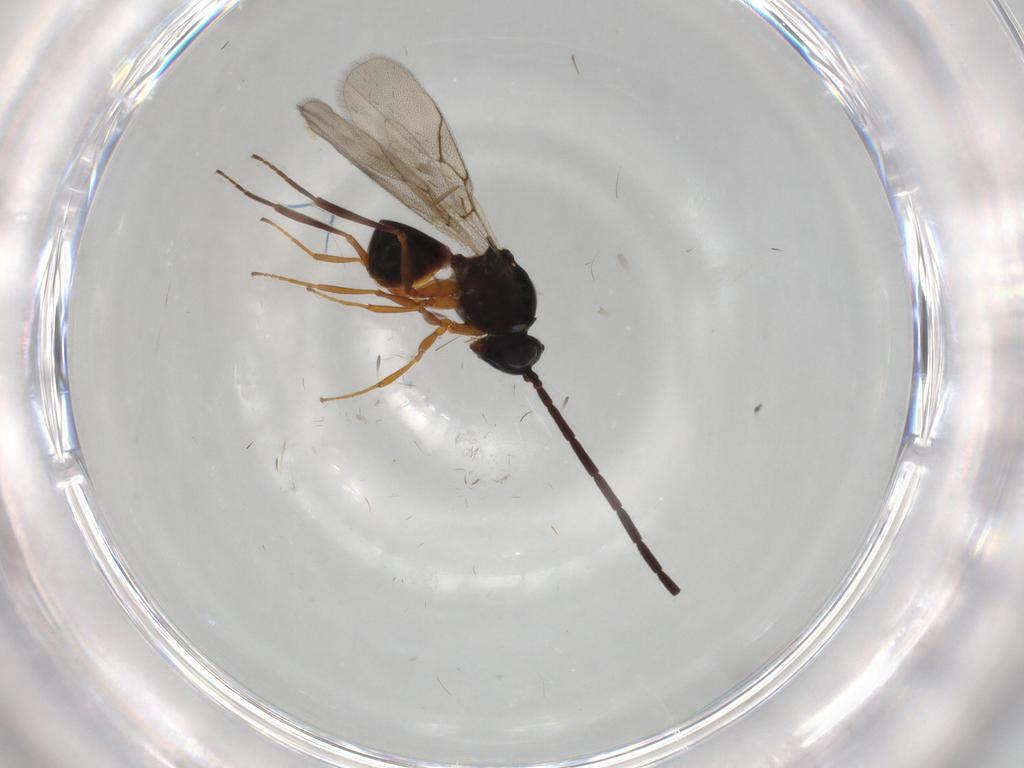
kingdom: Animalia
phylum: Arthropoda
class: Insecta
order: Hymenoptera
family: Figitidae
